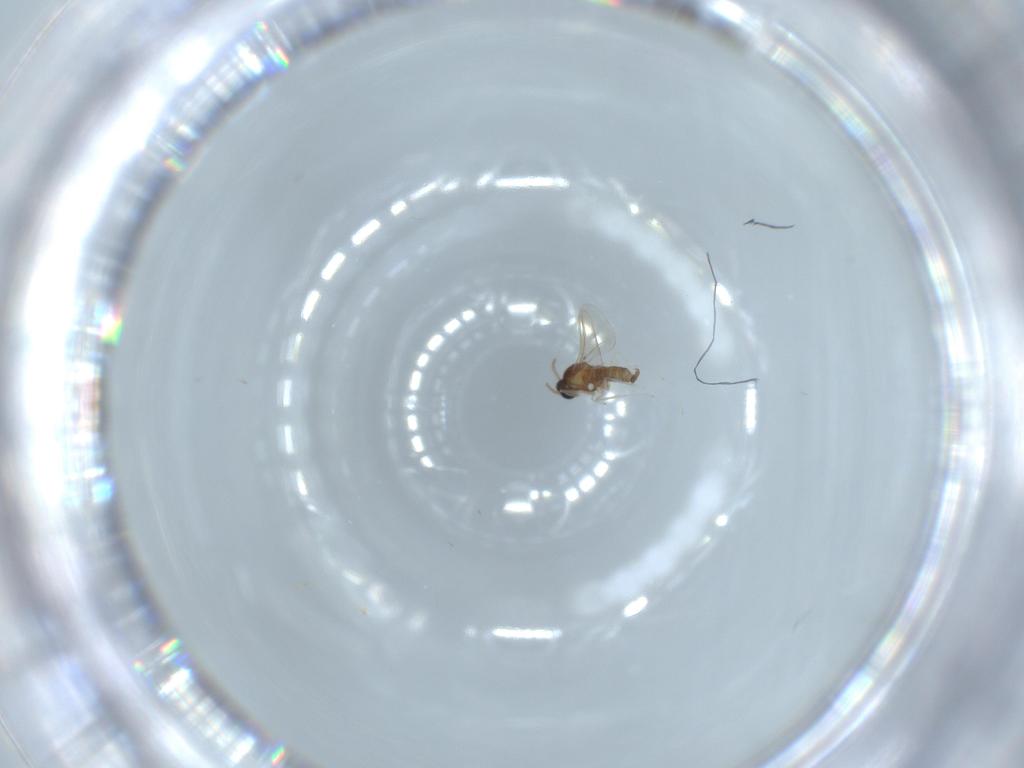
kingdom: Animalia
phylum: Arthropoda
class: Insecta
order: Diptera
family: Cecidomyiidae
